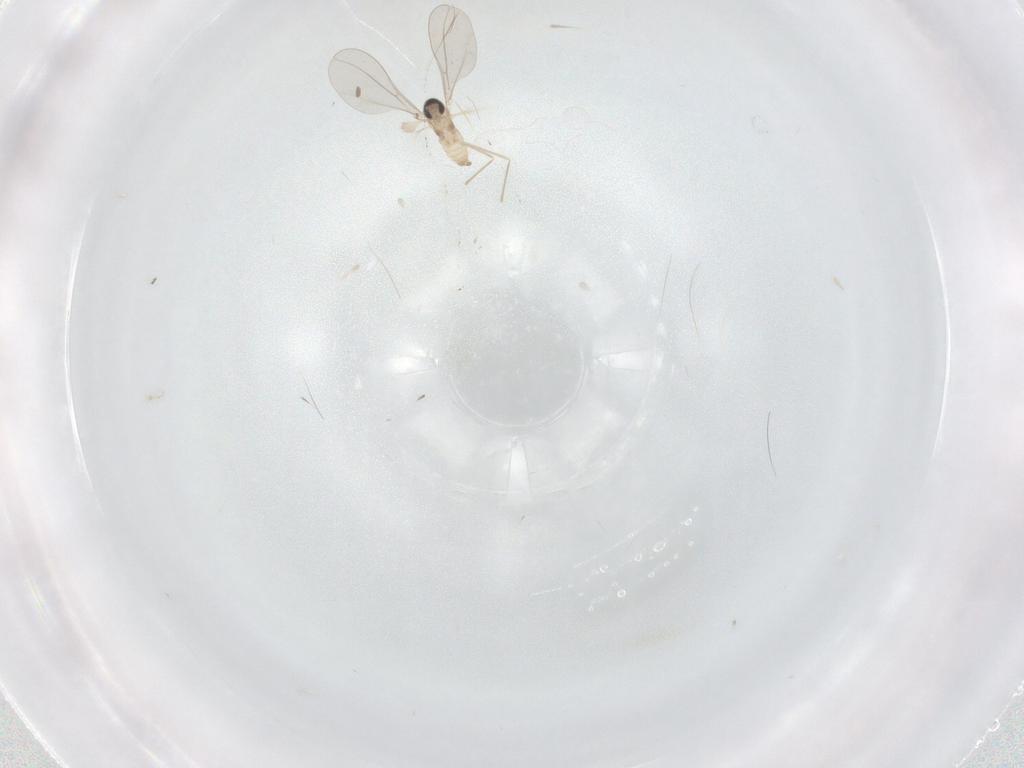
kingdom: Animalia
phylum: Arthropoda
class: Insecta
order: Diptera
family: Cecidomyiidae
